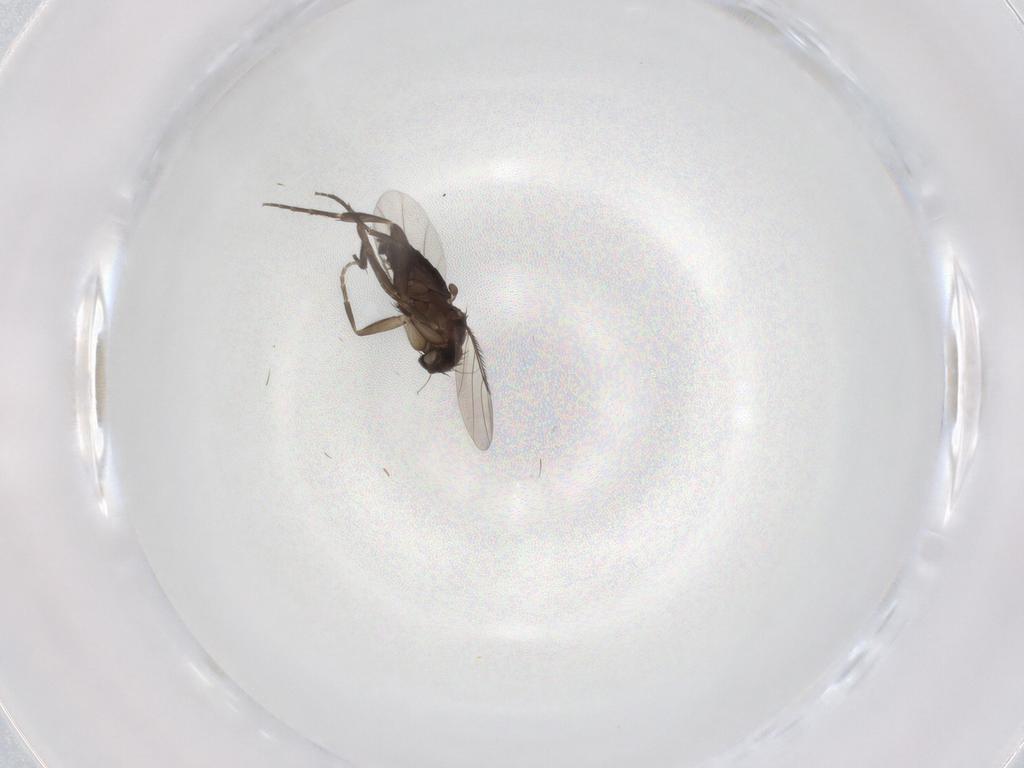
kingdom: Animalia
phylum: Arthropoda
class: Insecta
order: Diptera
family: Phoridae
